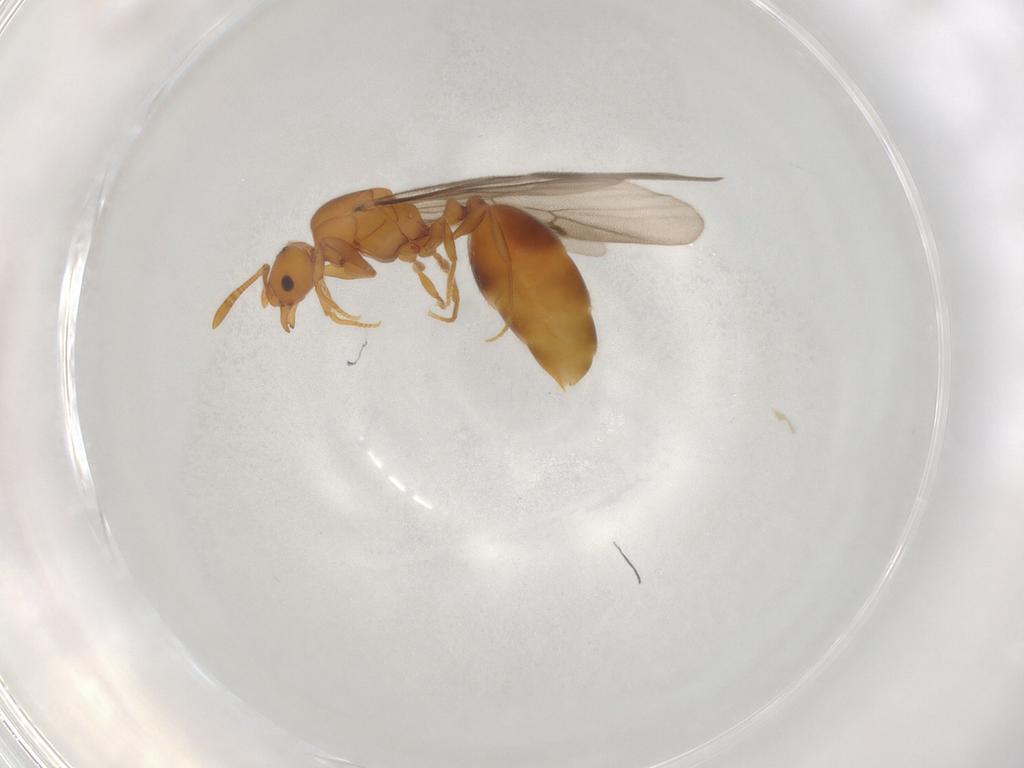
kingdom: Animalia
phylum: Arthropoda
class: Insecta
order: Hymenoptera
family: Formicidae
